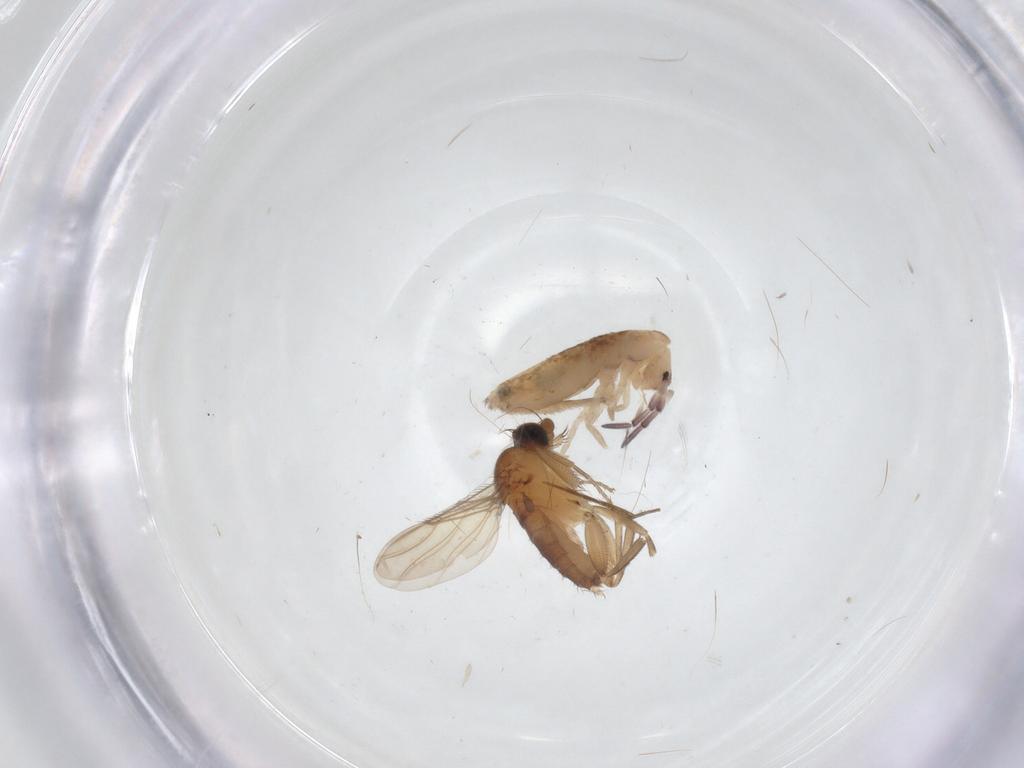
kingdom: Animalia
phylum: Arthropoda
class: Insecta
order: Diptera
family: Phoridae
